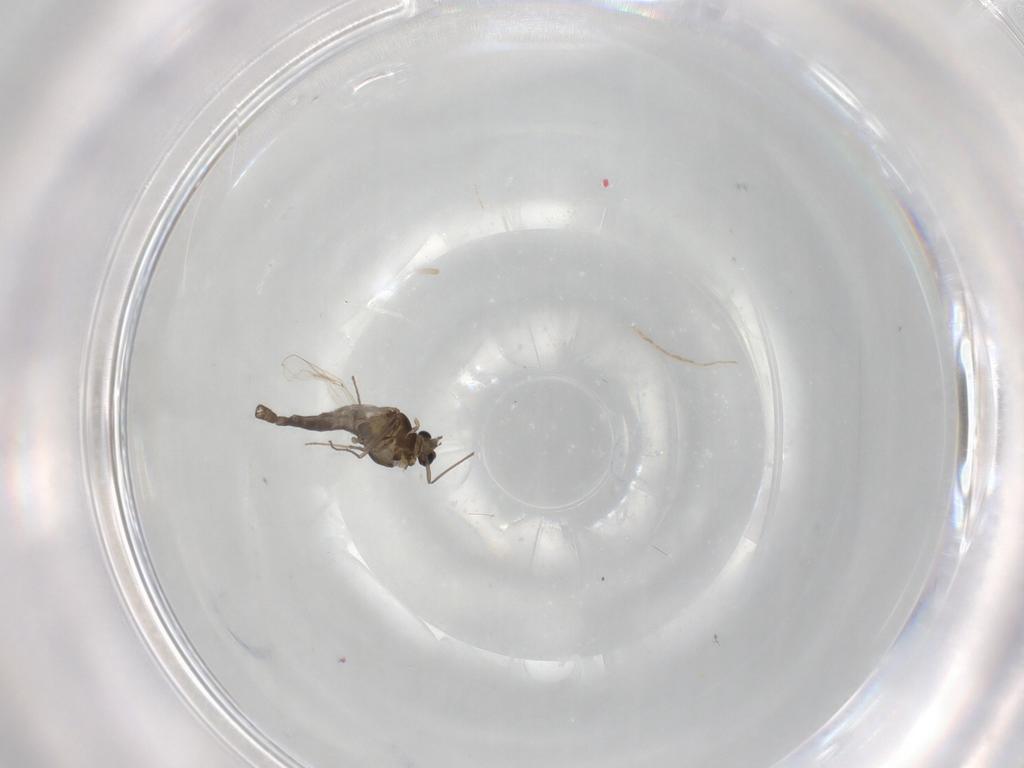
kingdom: Animalia
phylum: Arthropoda
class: Insecta
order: Diptera
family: Chironomidae
